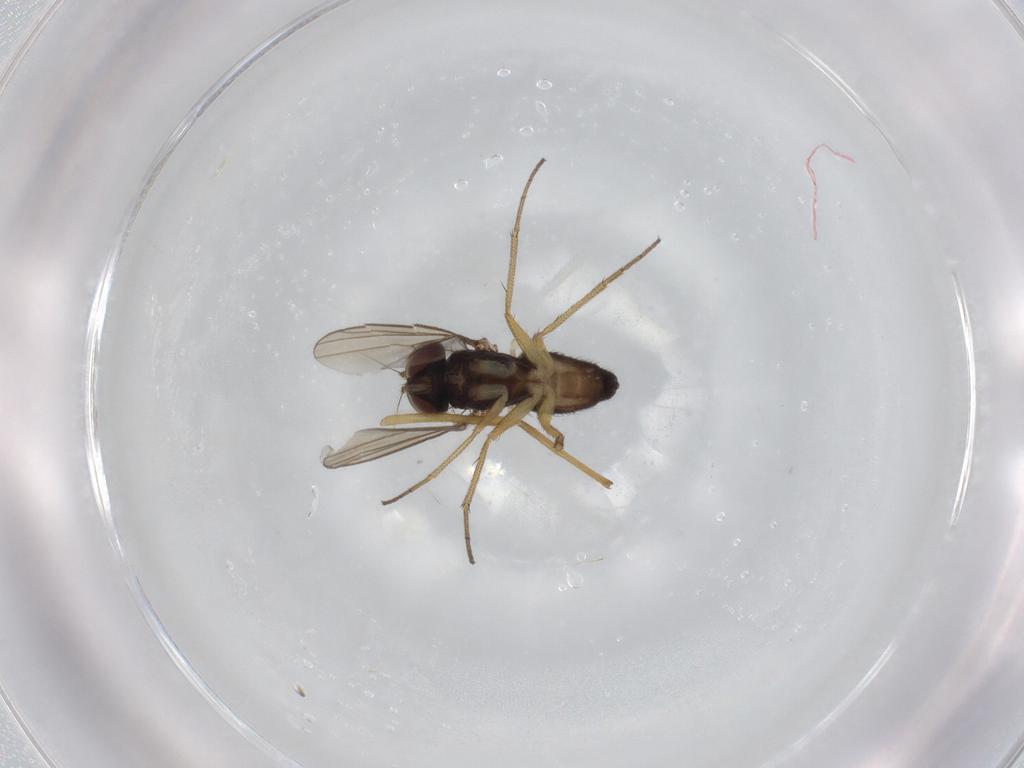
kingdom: Animalia
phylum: Arthropoda
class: Insecta
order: Diptera
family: Dolichopodidae
